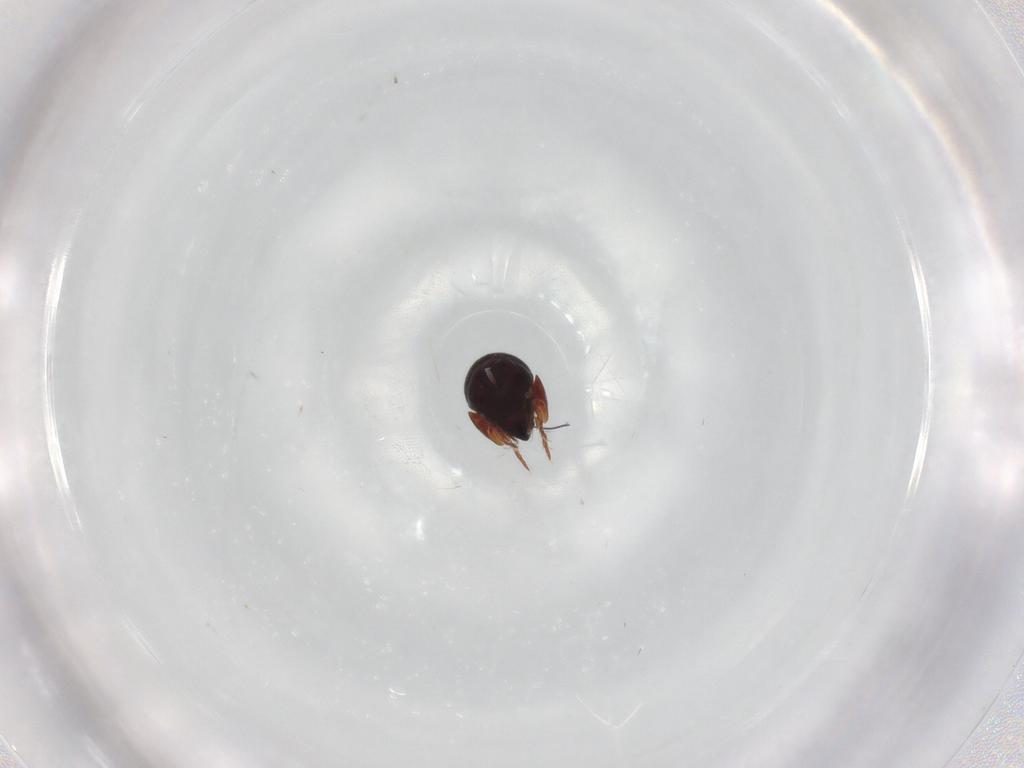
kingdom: Animalia
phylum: Arthropoda
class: Arachnida
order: Sarcoptiformes
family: Ceratozetidae
